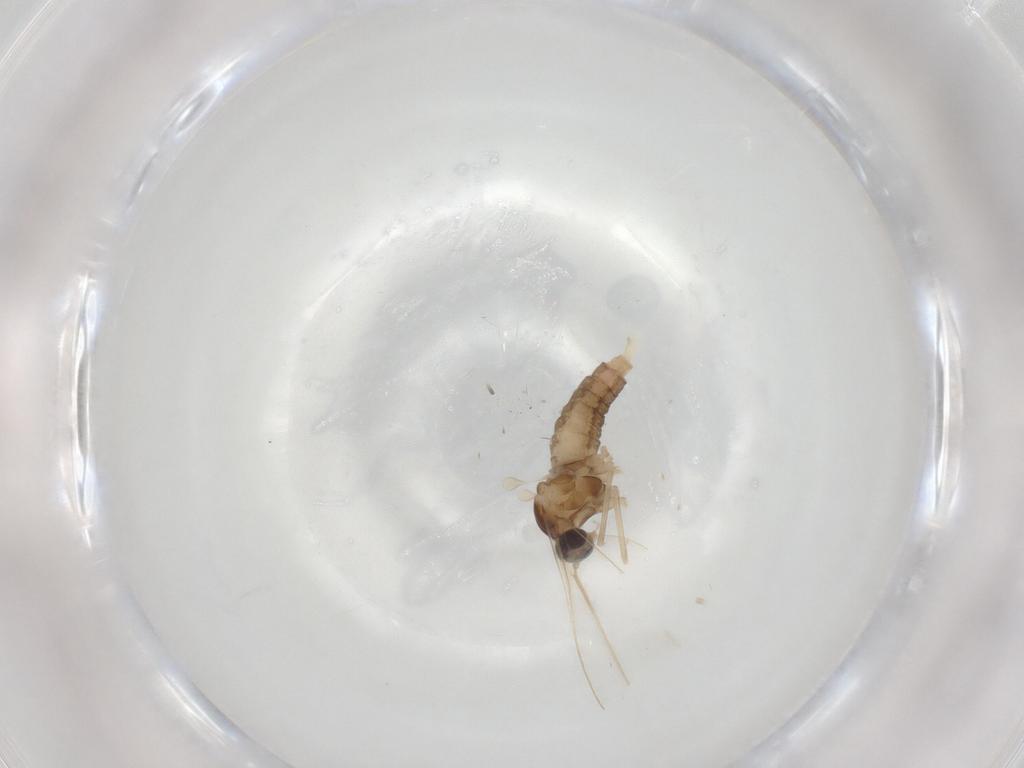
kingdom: Animalia
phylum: Arthropoda
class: Insecta
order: Diptera
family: Cecidomyiidae
